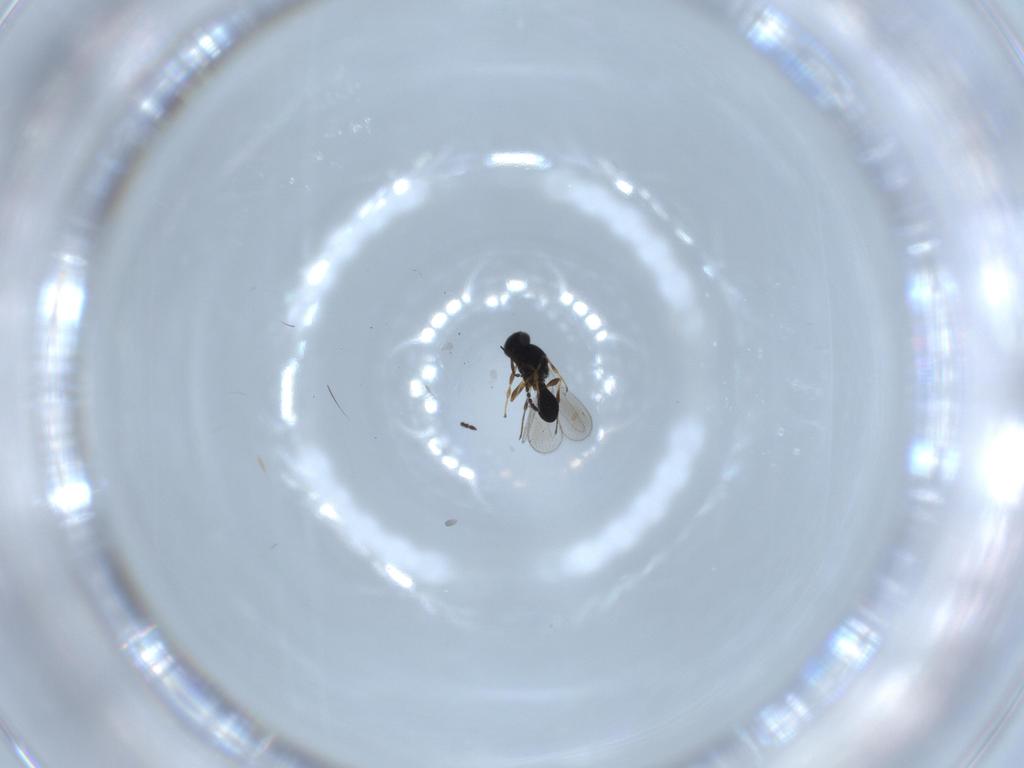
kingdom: Animalia
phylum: Arthropoda
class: Insecta
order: Hymenoptera
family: Platygastridae
